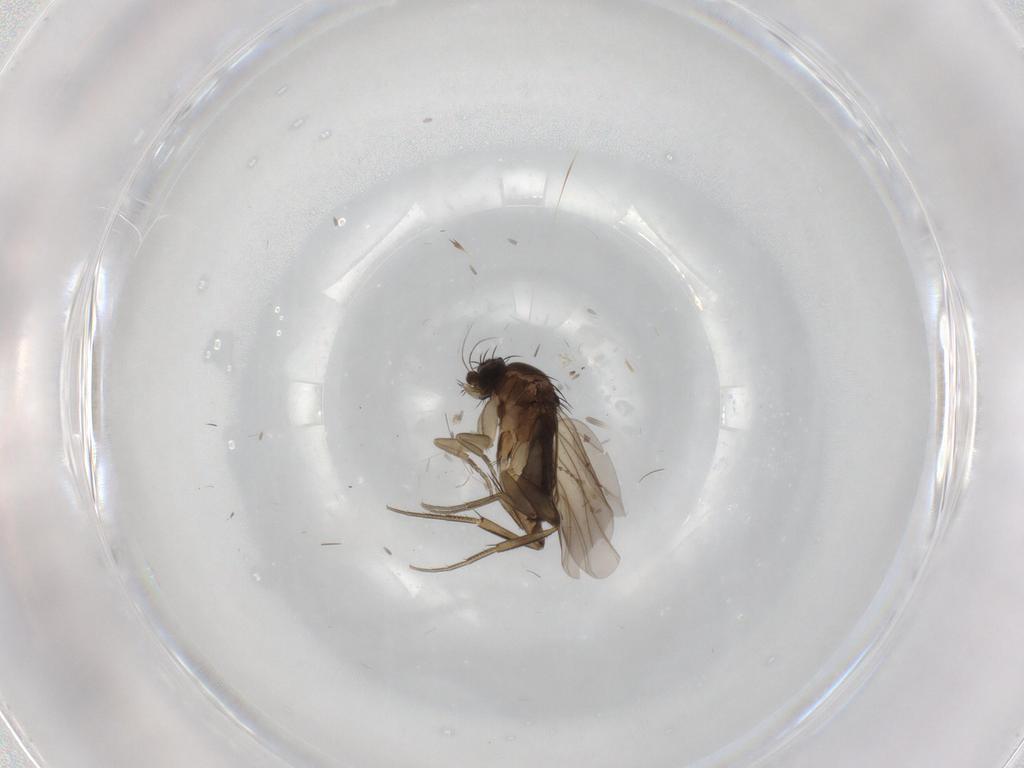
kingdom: Animalia
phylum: Arthropoda
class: Insecta
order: Diptera
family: Phoridae
